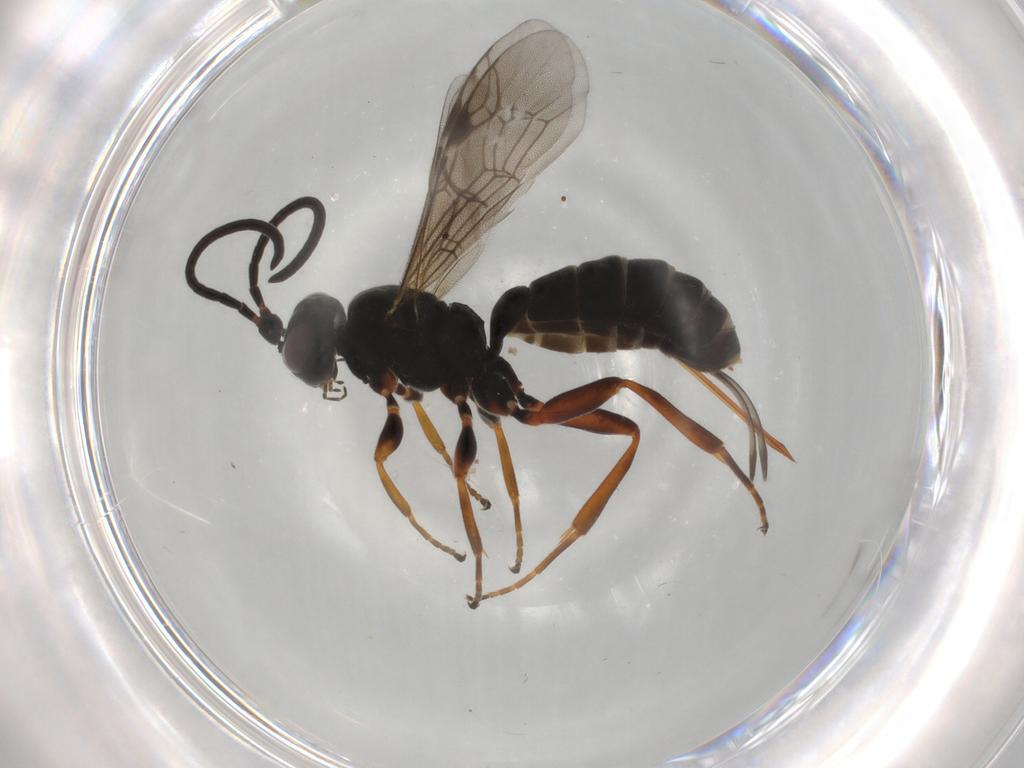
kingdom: Animalia
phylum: Arthropoda
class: Insecta
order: Hymenoptera
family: Ichneumonidae
